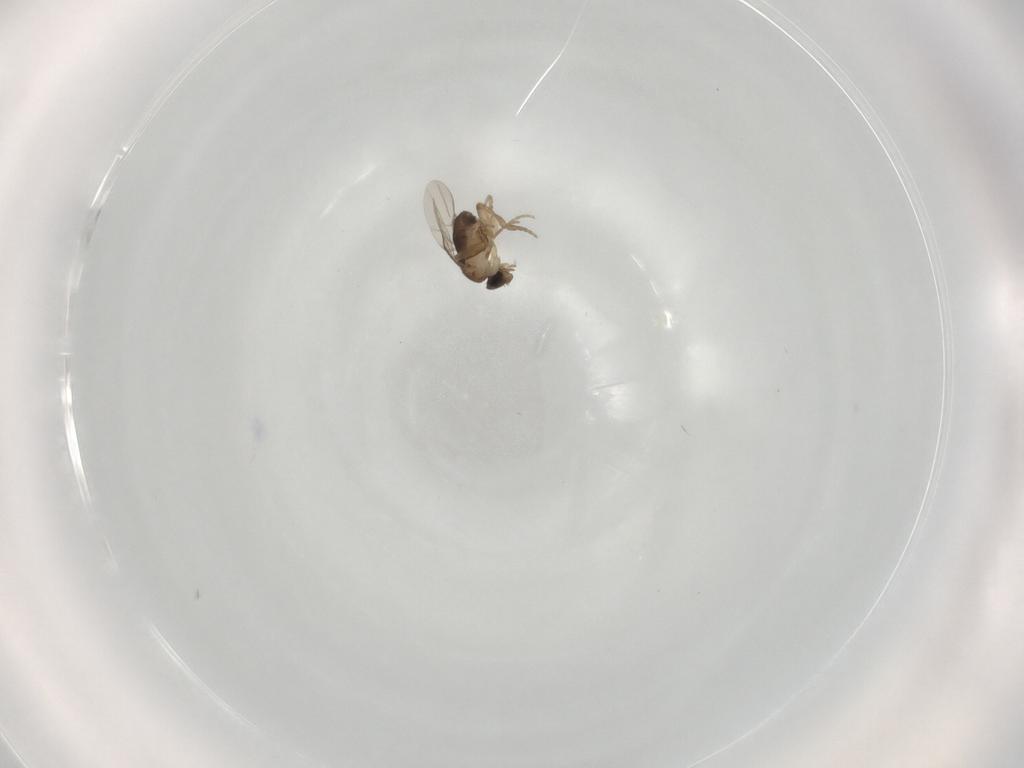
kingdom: Animalia
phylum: Arthropoda
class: Insecta
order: Diptera
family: Phoridae
